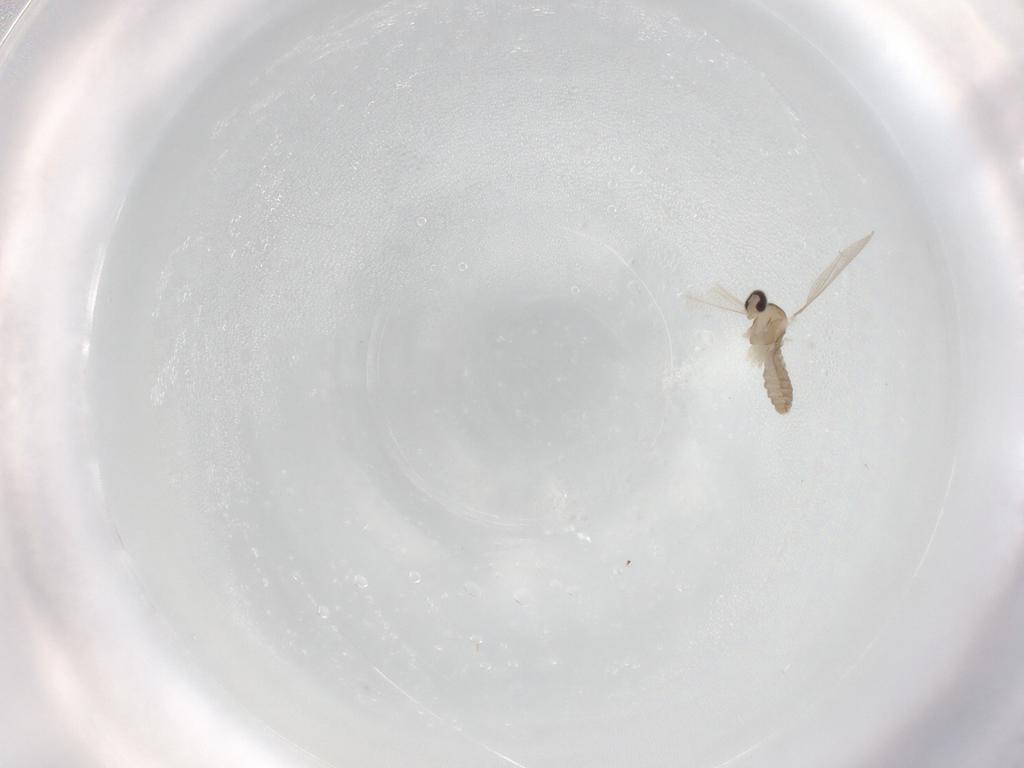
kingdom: Animalia
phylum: Arthropoda
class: Insecta
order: Diptera
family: Cecidomyiidae
